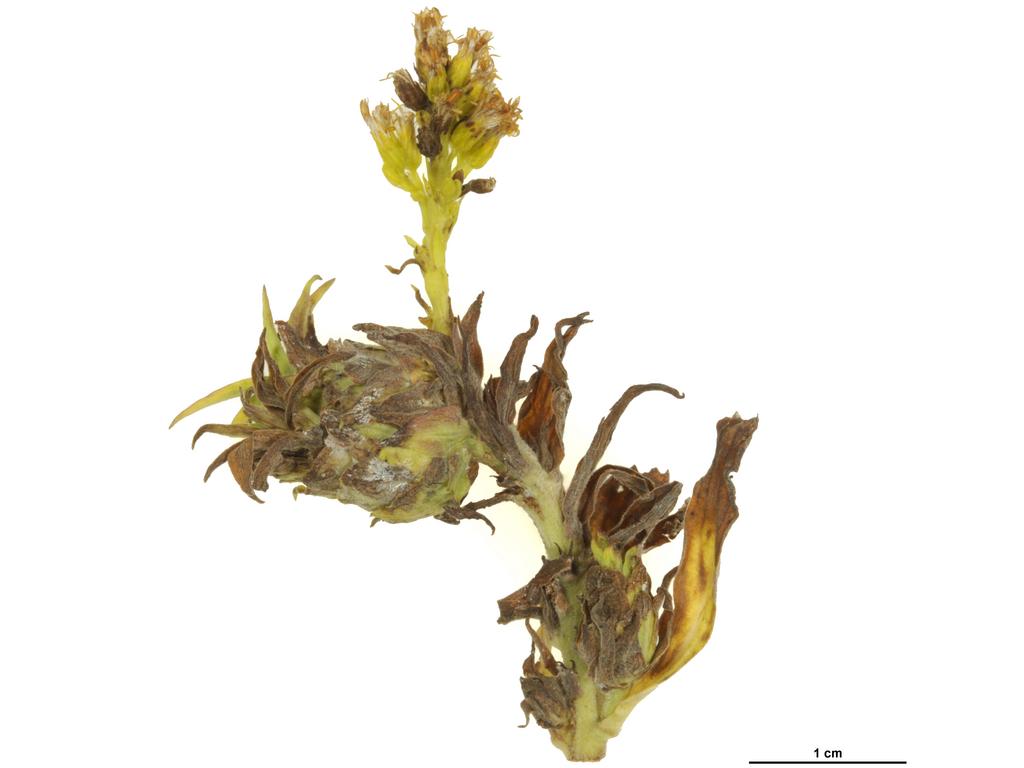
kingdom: Animalia
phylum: Arthropoda
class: Insecta
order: Diptera
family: Cecidomyiidae
